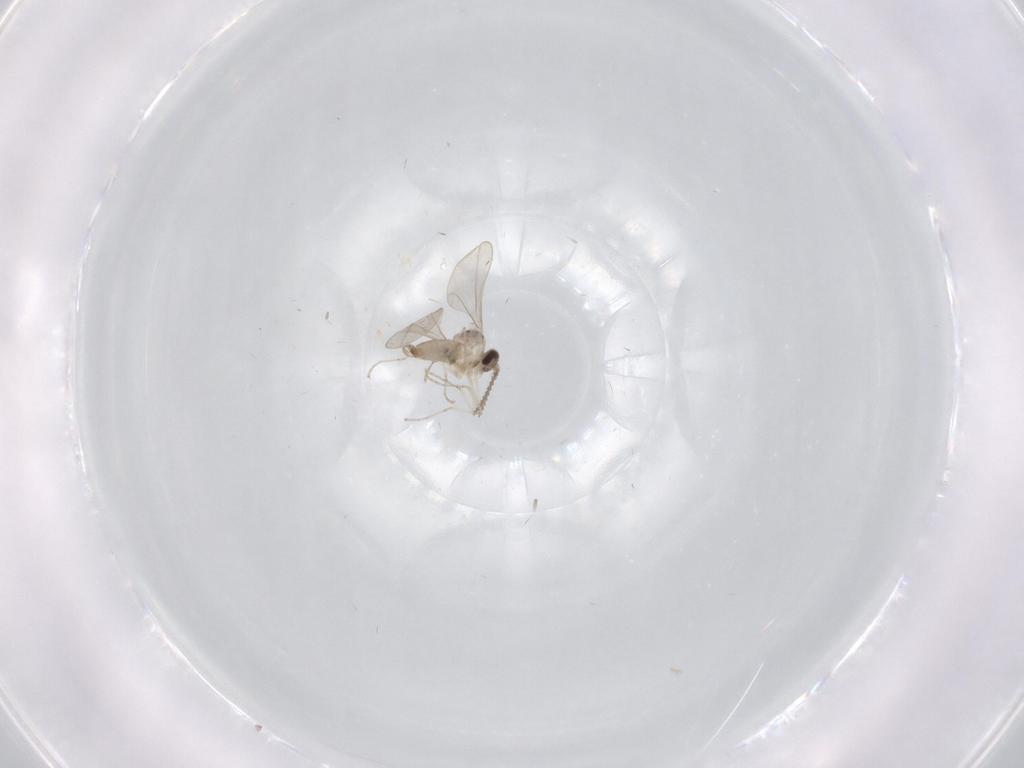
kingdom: Animalia
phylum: Arthropoda
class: Insecta
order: Diptera
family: Cecidomyiidae
